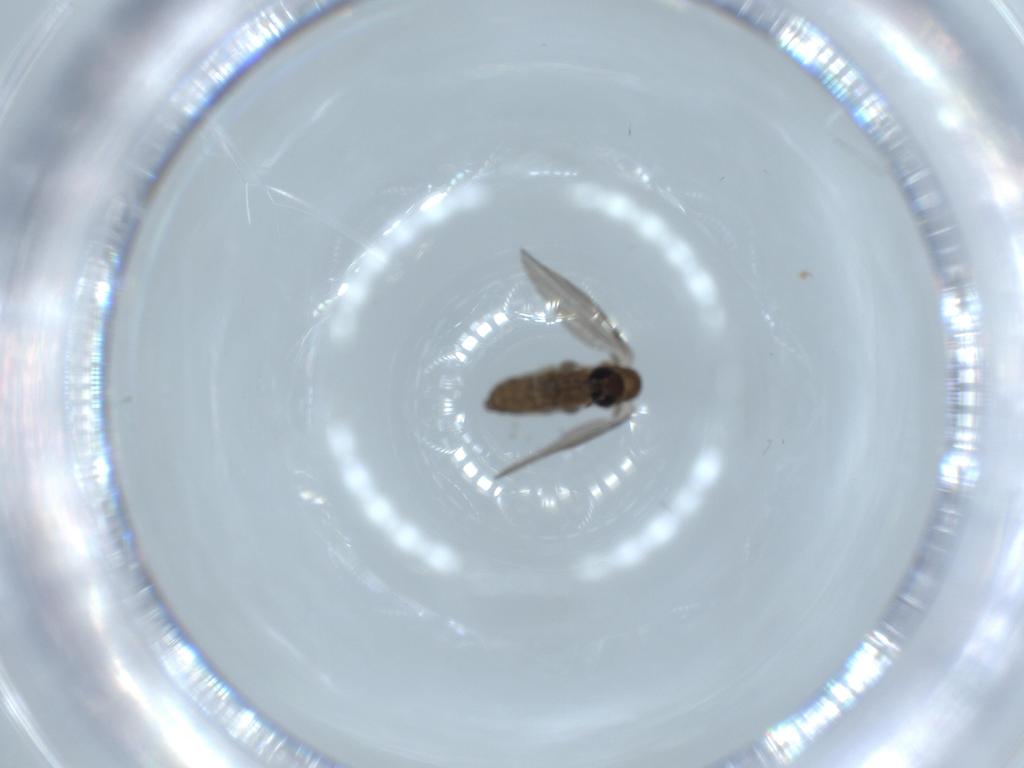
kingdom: Animalia
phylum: Arthropoda
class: Insecta
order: Diptera
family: Psychodidae
